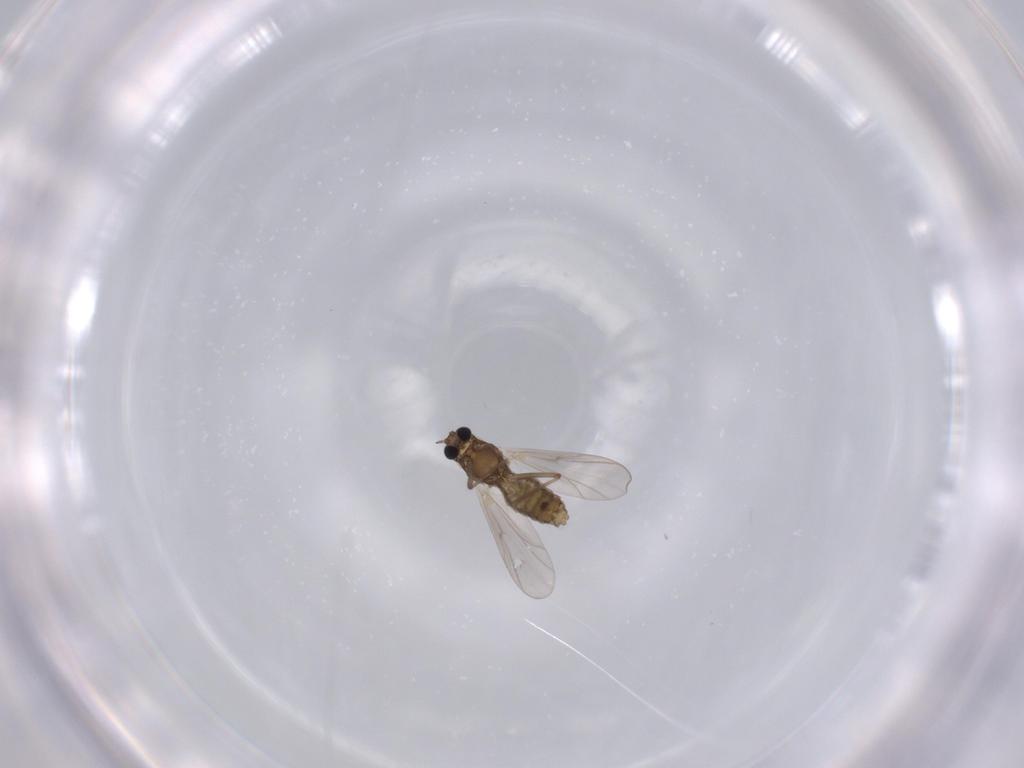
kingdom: Animalia
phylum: Arthropoda
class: Insecta
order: Diptera
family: Chironomidae
